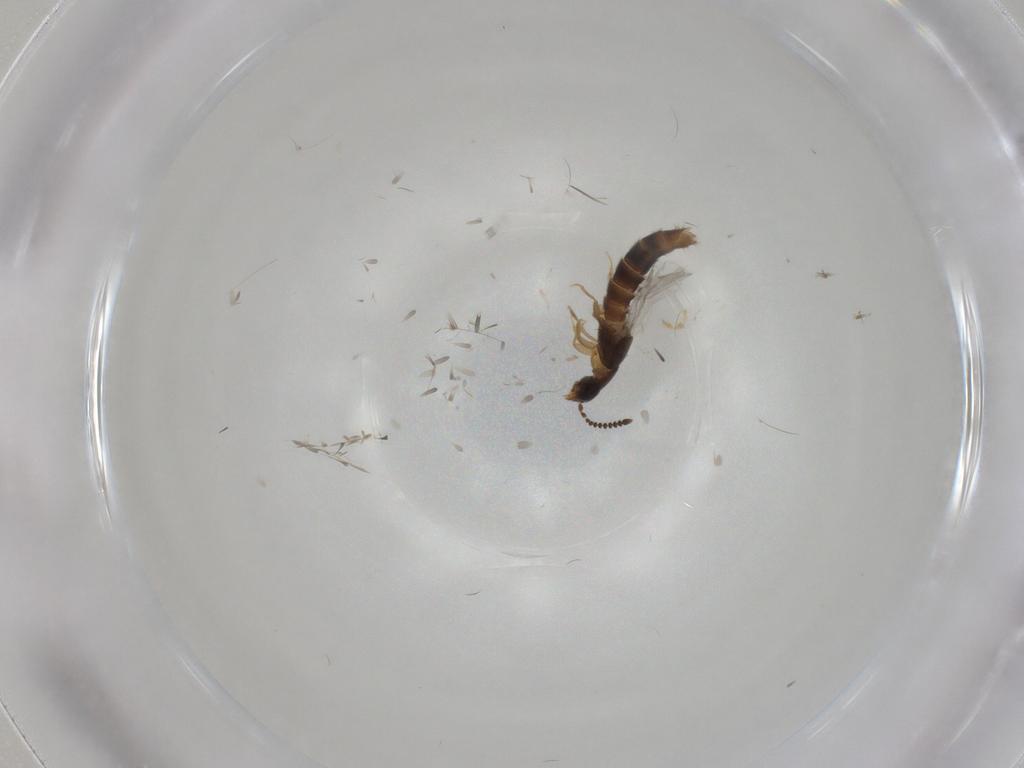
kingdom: Animalia
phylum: Arthropoda
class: Insecta
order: Coleoptera
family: Endomychidae
